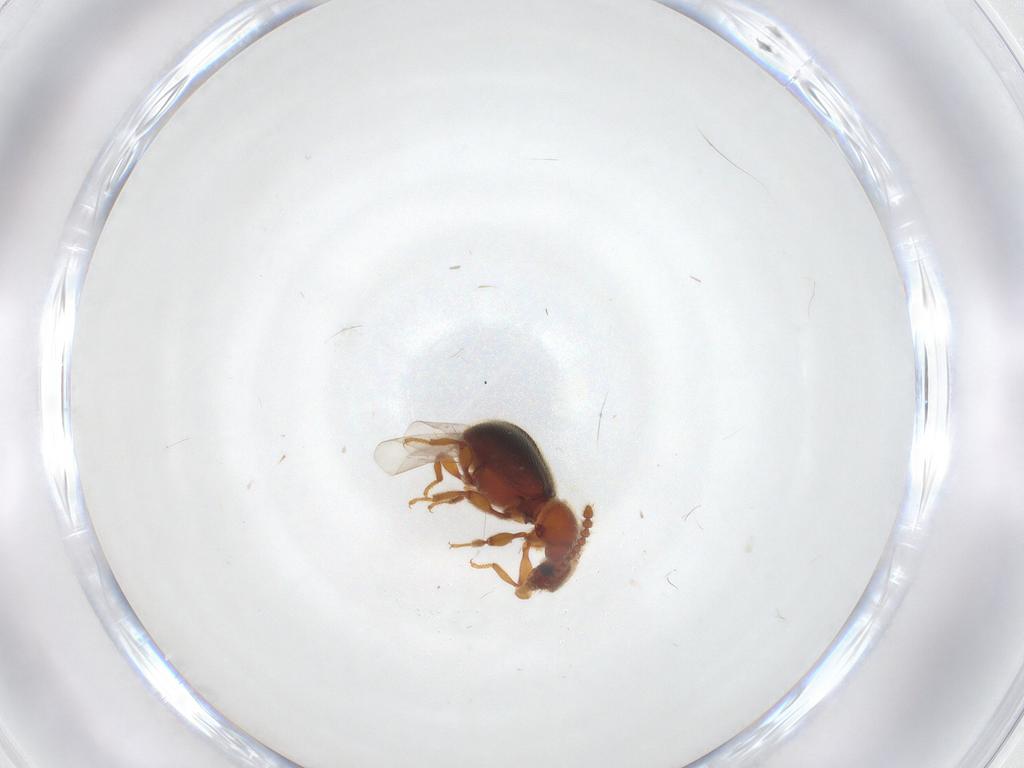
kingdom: Animalia
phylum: Arthropoda
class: Insecta
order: Coleoptera
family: Staphylinidae
